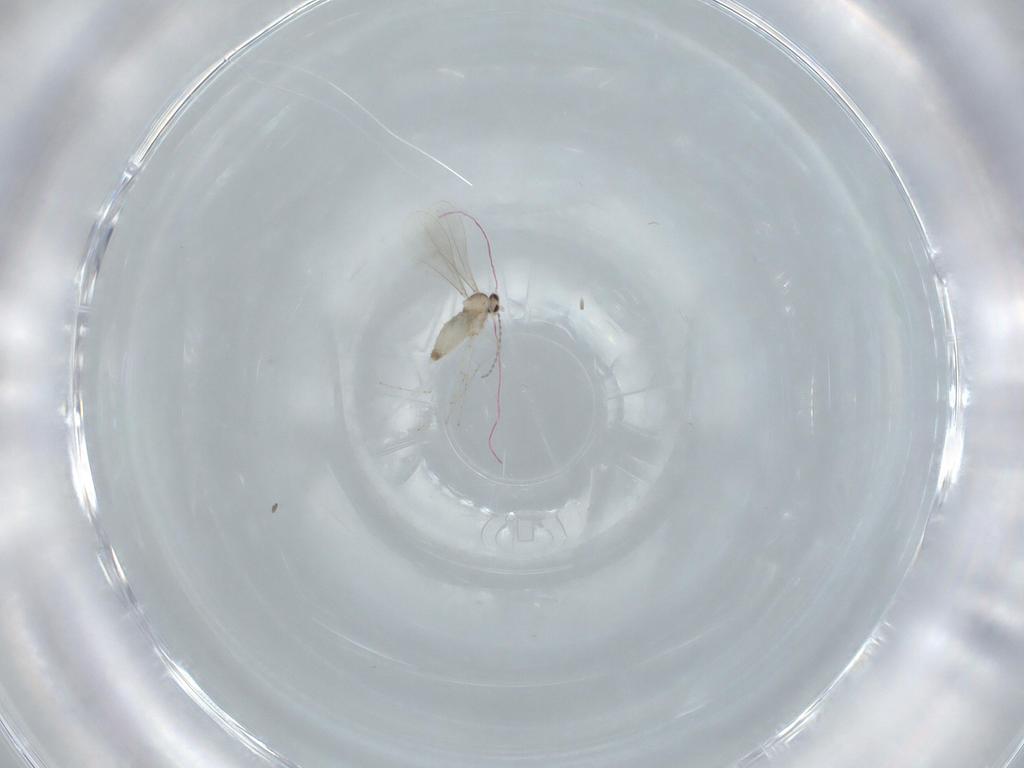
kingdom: Animalia
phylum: Arthropoda
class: Insecta
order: Diptera
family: Cecidomyiidae
